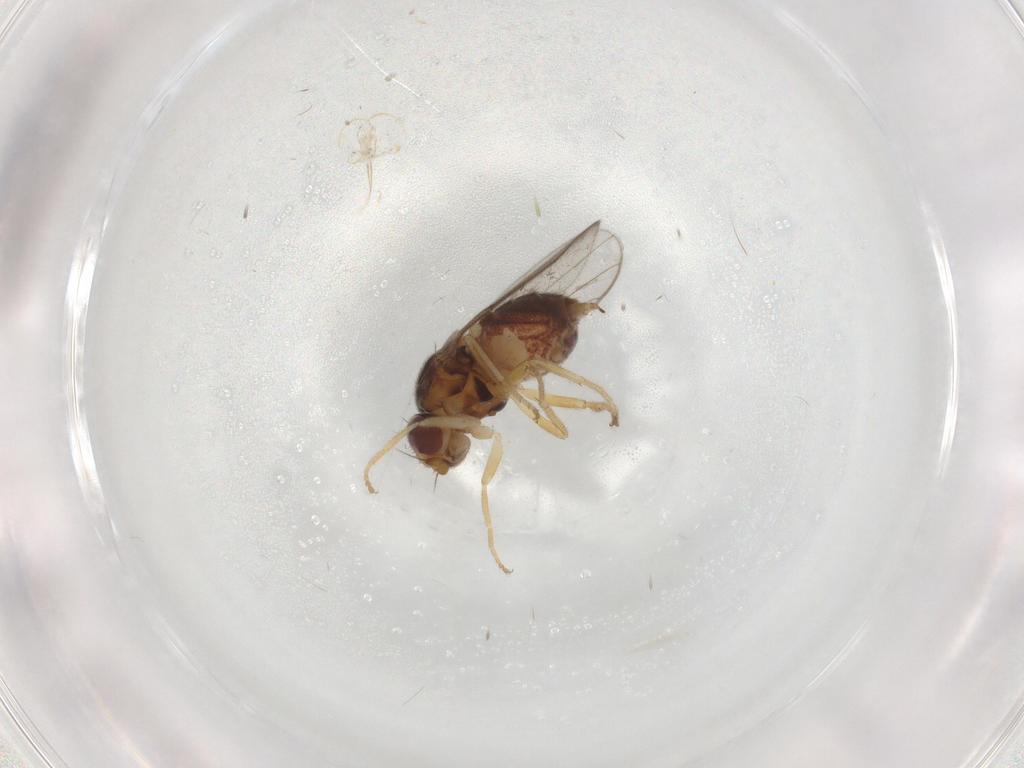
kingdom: Animalia
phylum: Arthropoda
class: Insecta
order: Diptera
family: Chloropidae
